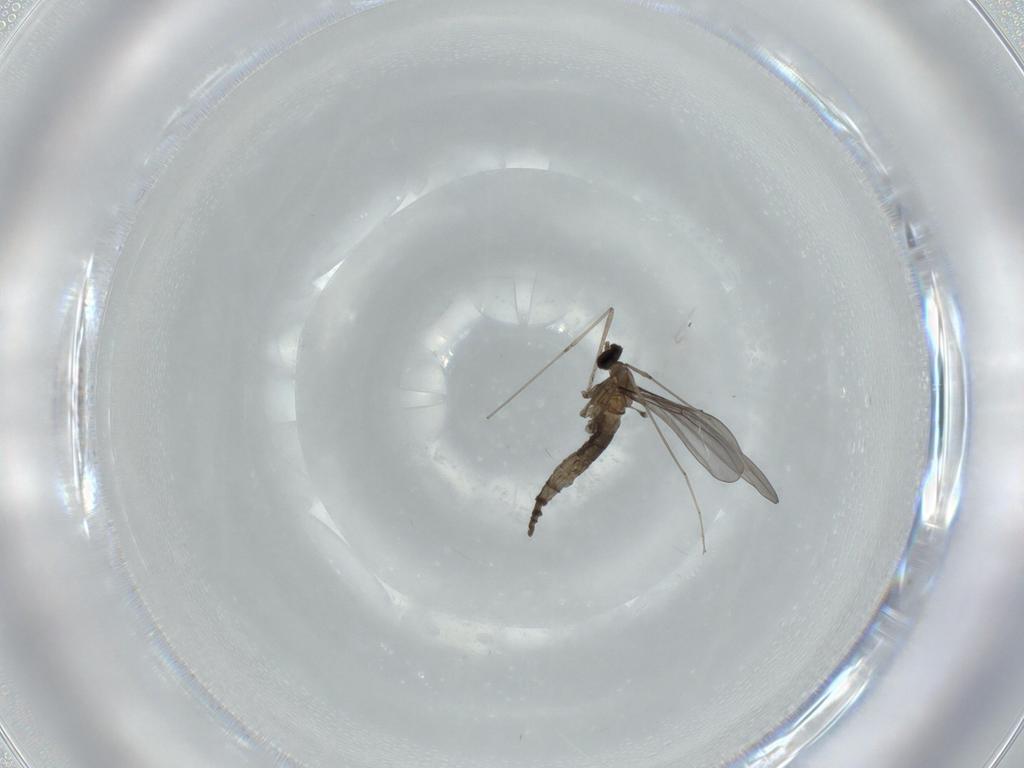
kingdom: Animalia
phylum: Arthropoda
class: Insecta
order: Diptera
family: Cecidomyiidae
